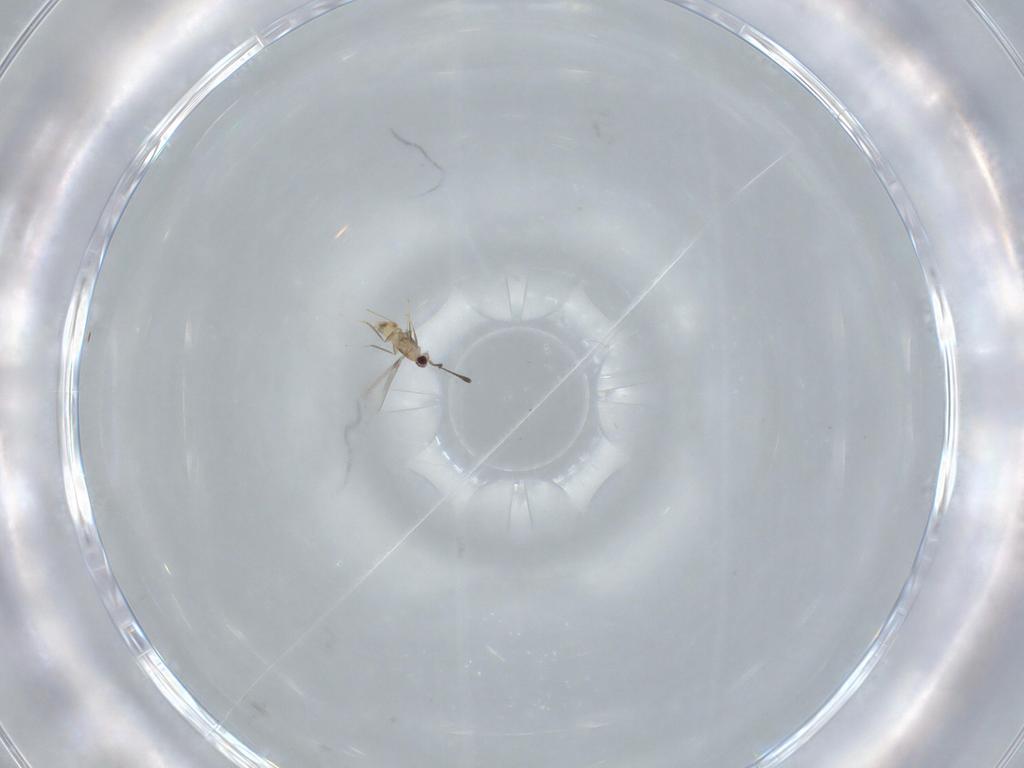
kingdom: Animalia
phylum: Arthropoda
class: Insecta
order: Hymenoptera
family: Mymaridae
